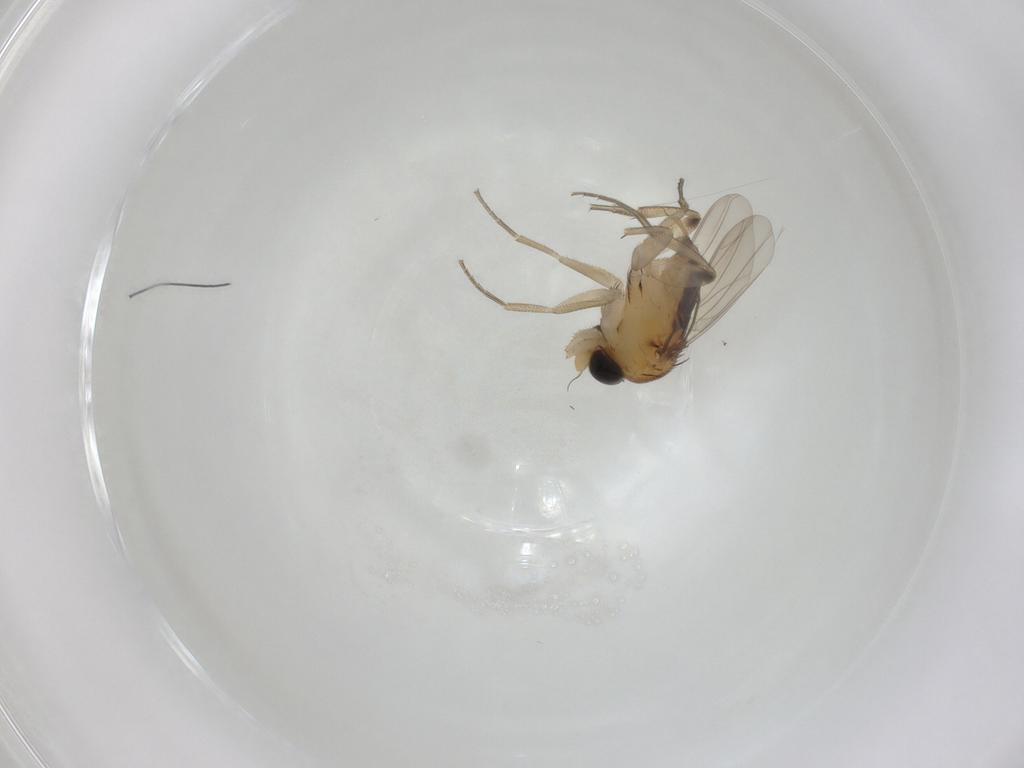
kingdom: Animalia
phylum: Arthropoda
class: Insecta
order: Diptera
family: Phoridae
